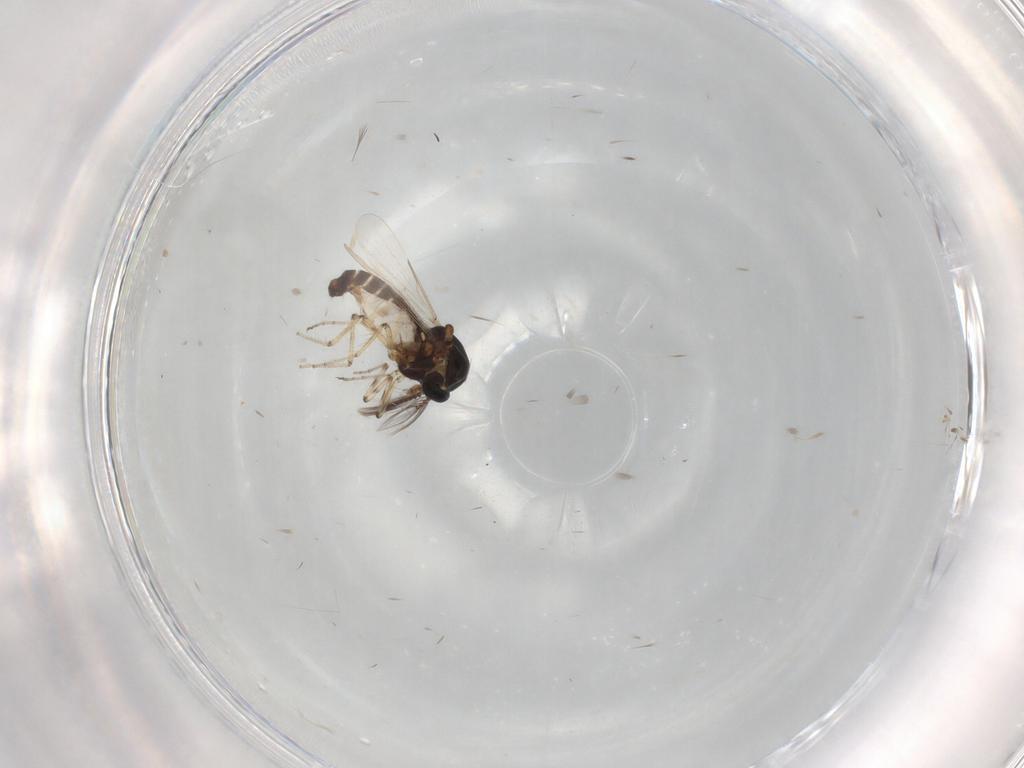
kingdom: Animalia
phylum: Arthropoda
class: Insecta
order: Diptera
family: Ceratopogonidae
